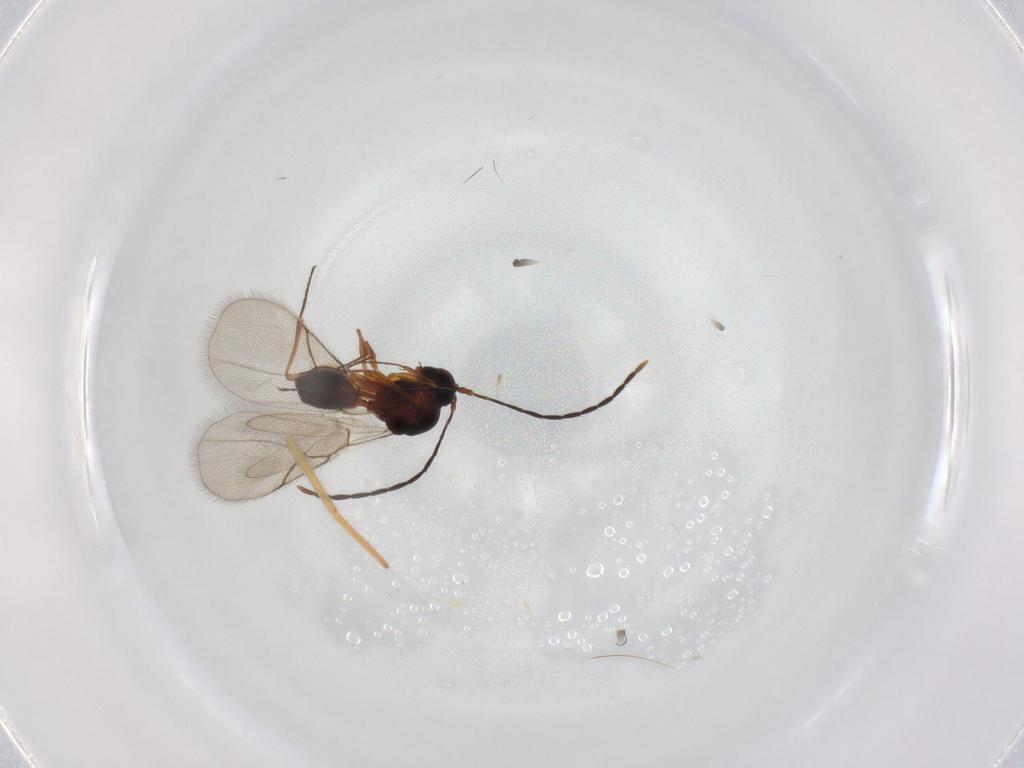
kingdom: Animalia
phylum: Arthropoda
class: Insecta
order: Hymenoptera
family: Figitidae
